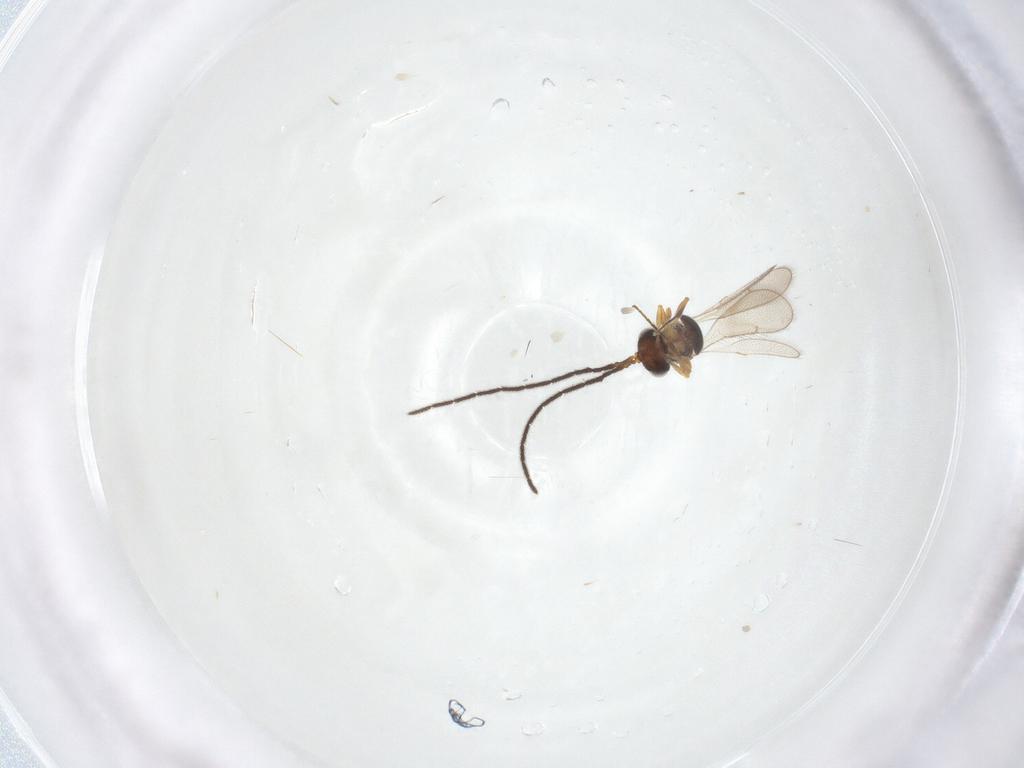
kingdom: Animalia
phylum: Arthropoda
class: Insecta
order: Hymenoptera
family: Scelionidae
